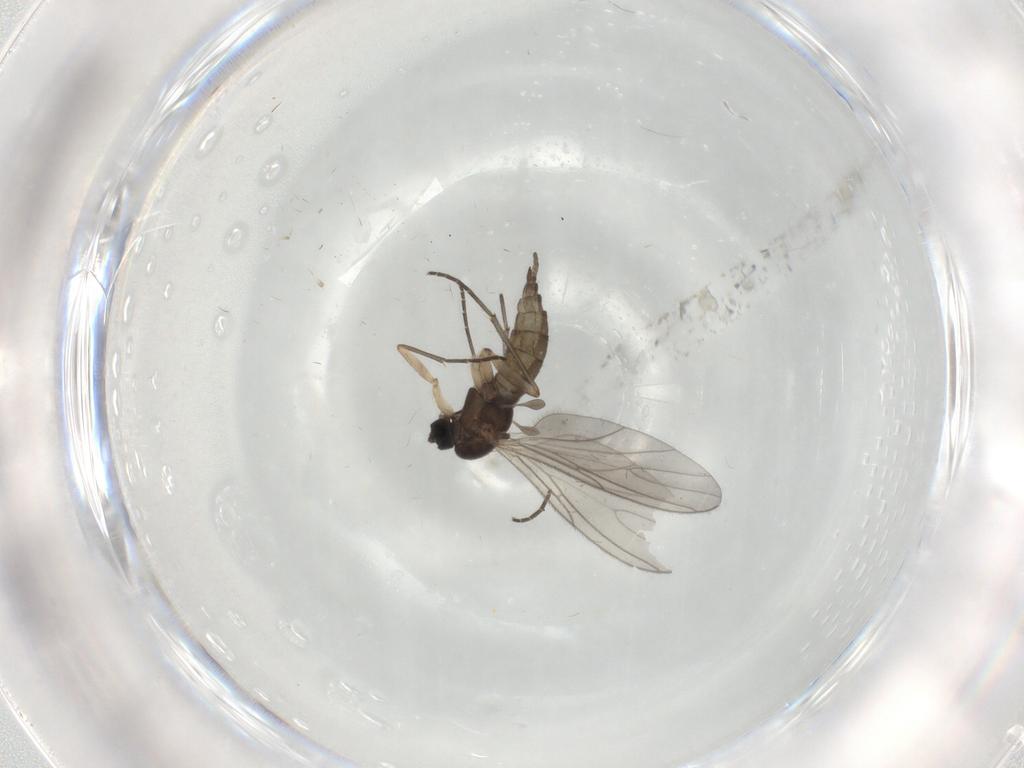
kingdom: Animalia
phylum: Arthropoda
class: Insecta
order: Diptera
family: Sciaridae
